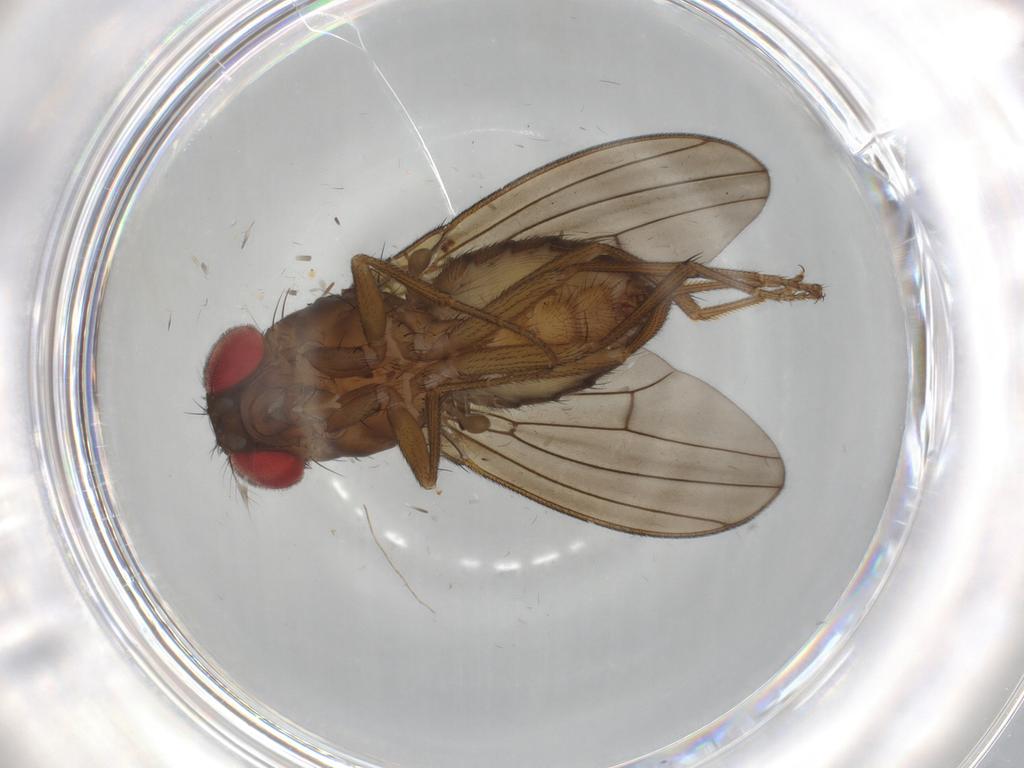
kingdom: Animalia
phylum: Arthropoda
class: Insecta
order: Diptera
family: Drosophilidae
